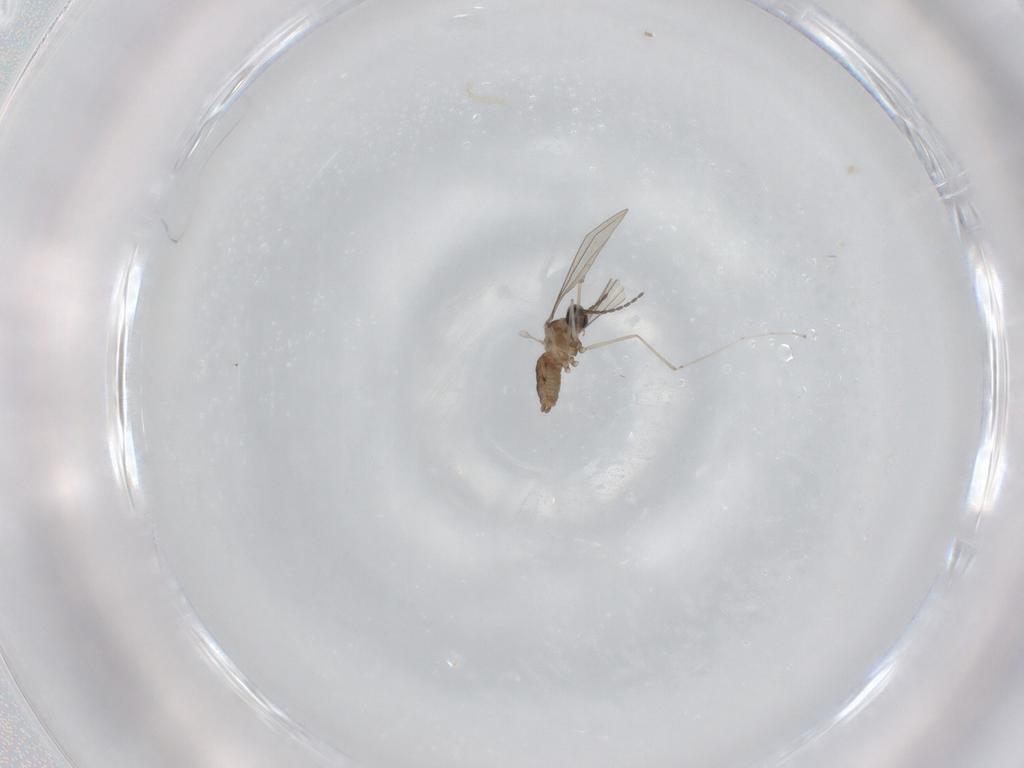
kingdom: Animalia
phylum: Arthropoda
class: Insecta
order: Diptera
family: Cecidomyiidae
